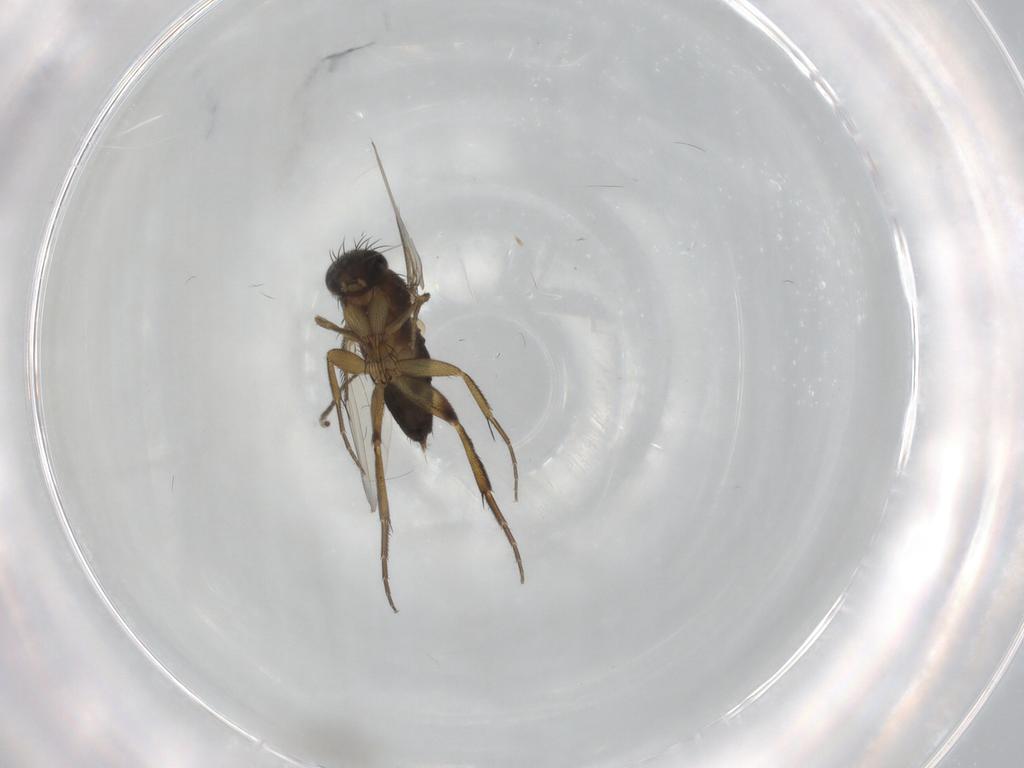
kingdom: Animalia
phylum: Arthropoda
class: Insecta
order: Diptera
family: Phoridae
